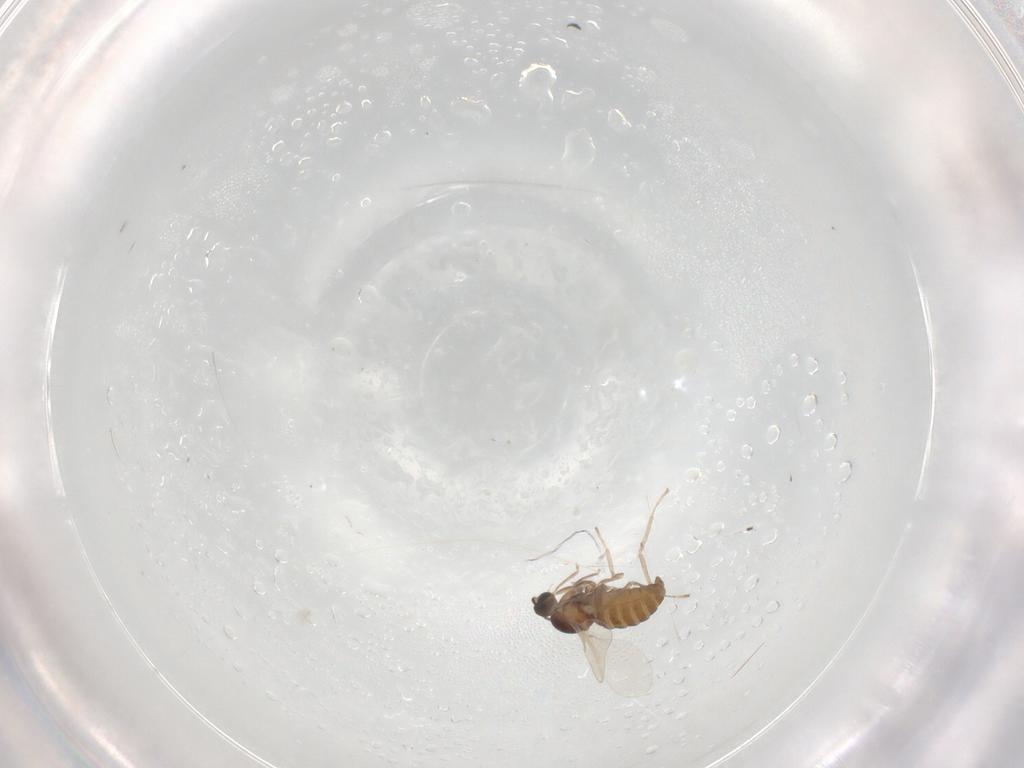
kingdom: Animalia
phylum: Arthropoda
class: Insecta
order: Diptera
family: Cecidomyiidae
